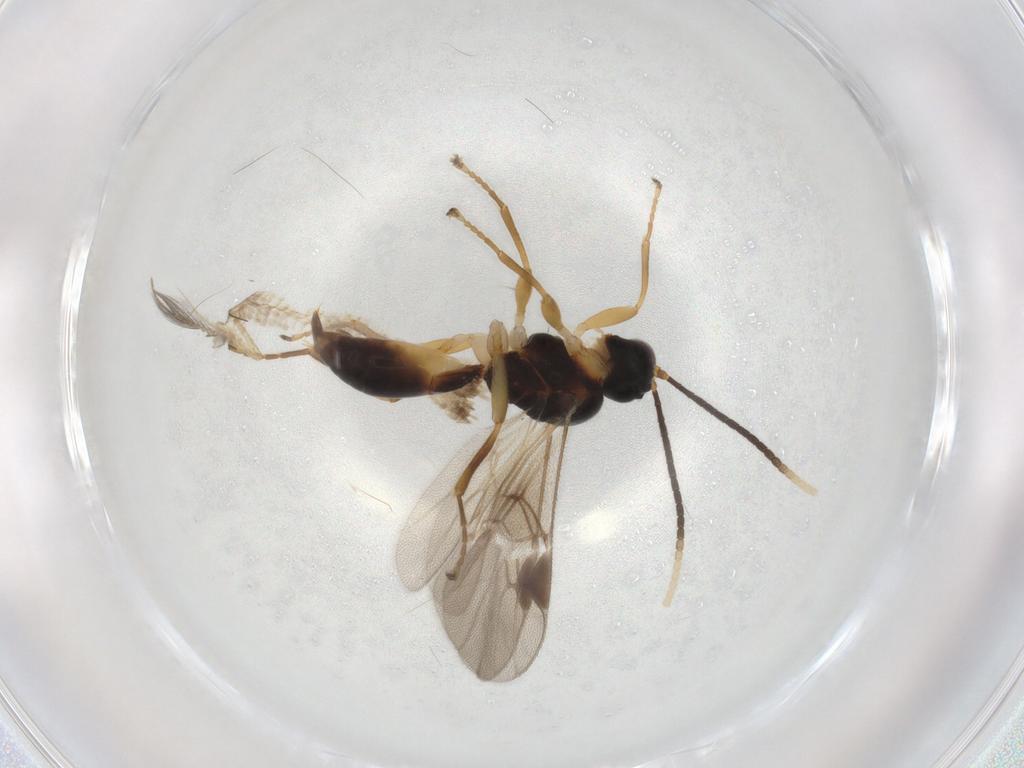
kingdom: Animalia
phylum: Arthropoda
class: Insecta
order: Hymenoptera
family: Braconidae
